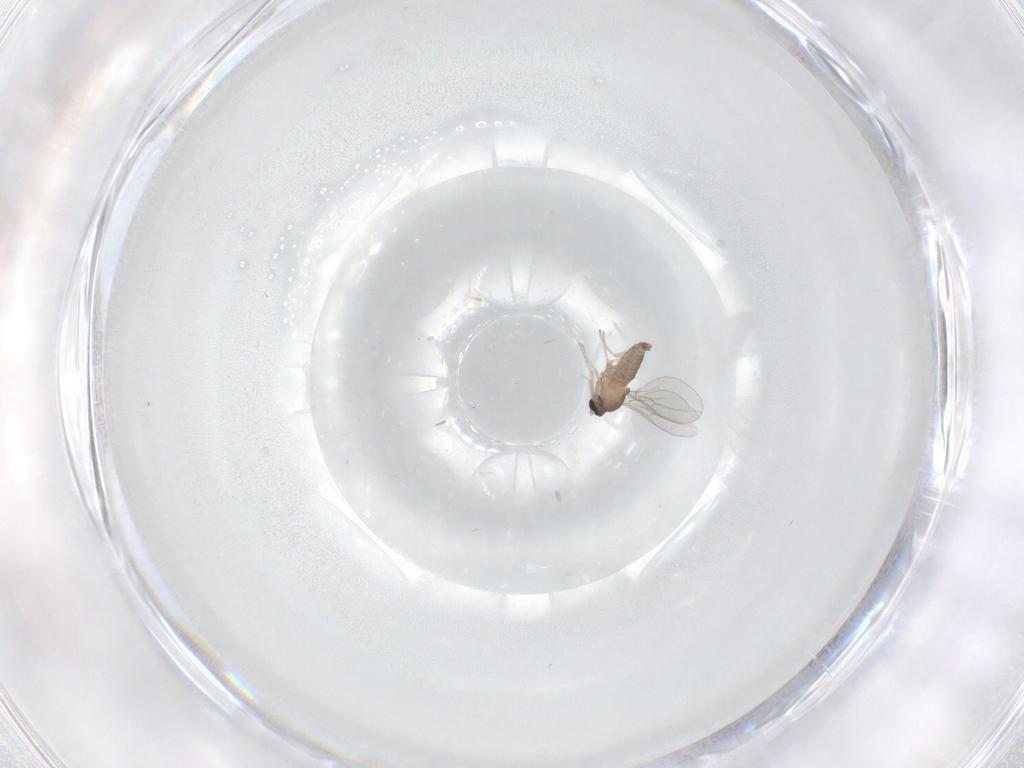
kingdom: Animalia
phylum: Arthropoda
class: Insecta
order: Diptera
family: Cecidomyiidae
